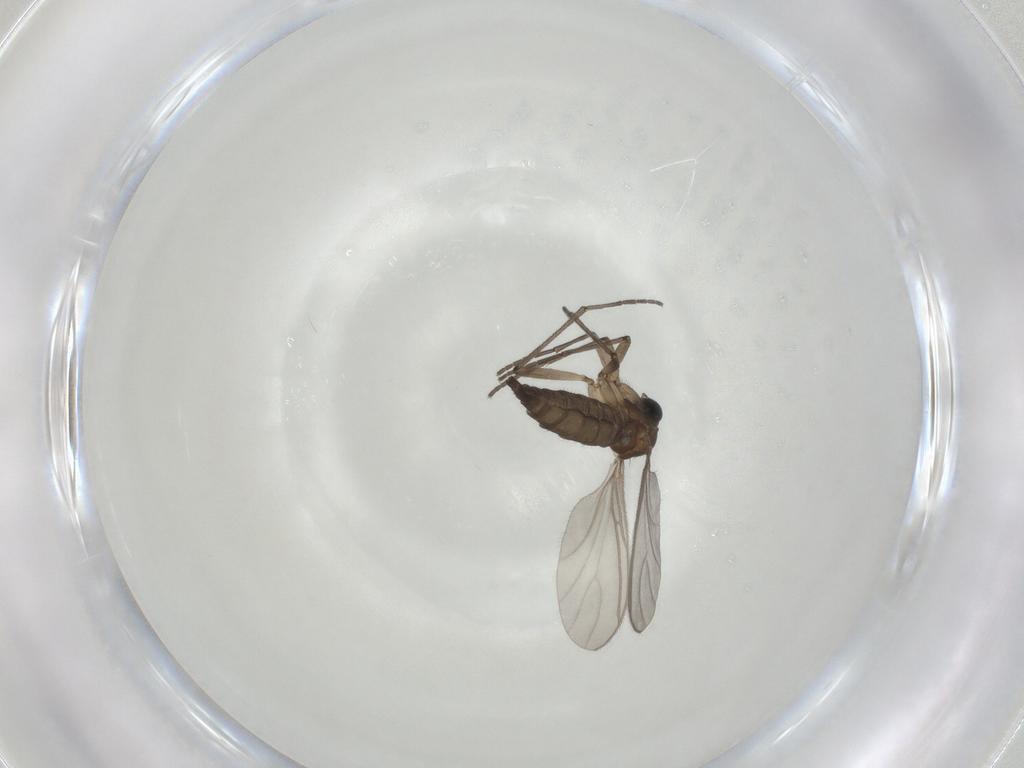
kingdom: Animalia
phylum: Arthropoda
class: Insecta
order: Diptera
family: Sciaridae
